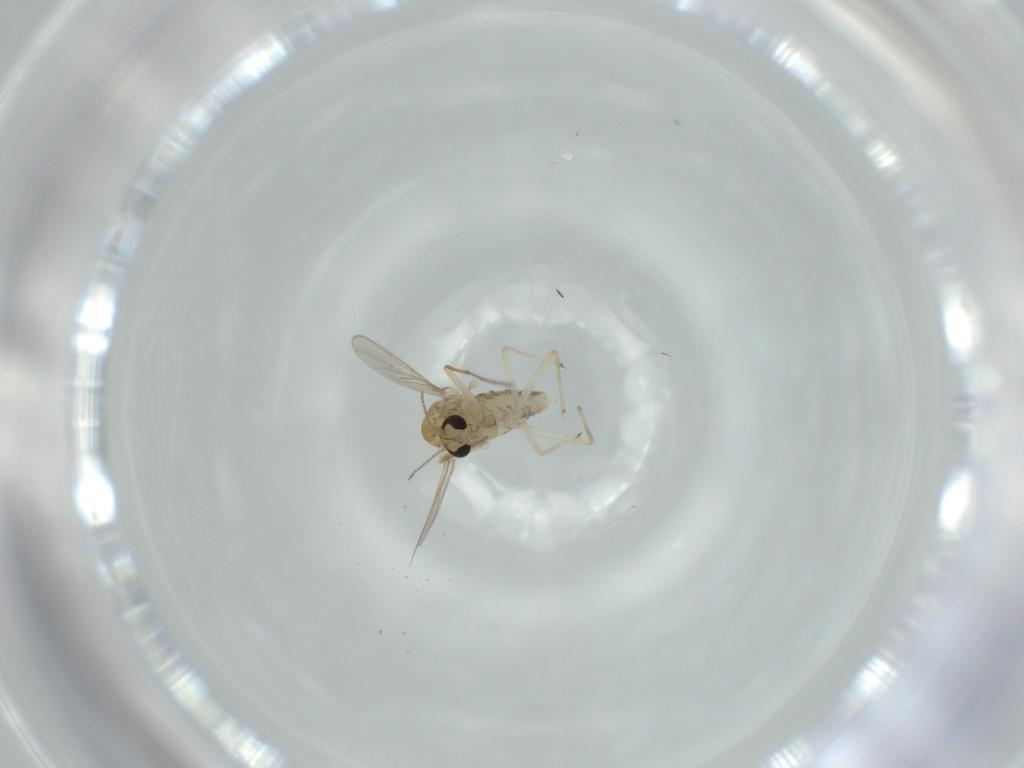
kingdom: Animalia
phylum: Arthropoda
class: Insecta
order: Diptera
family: Chironomidae
